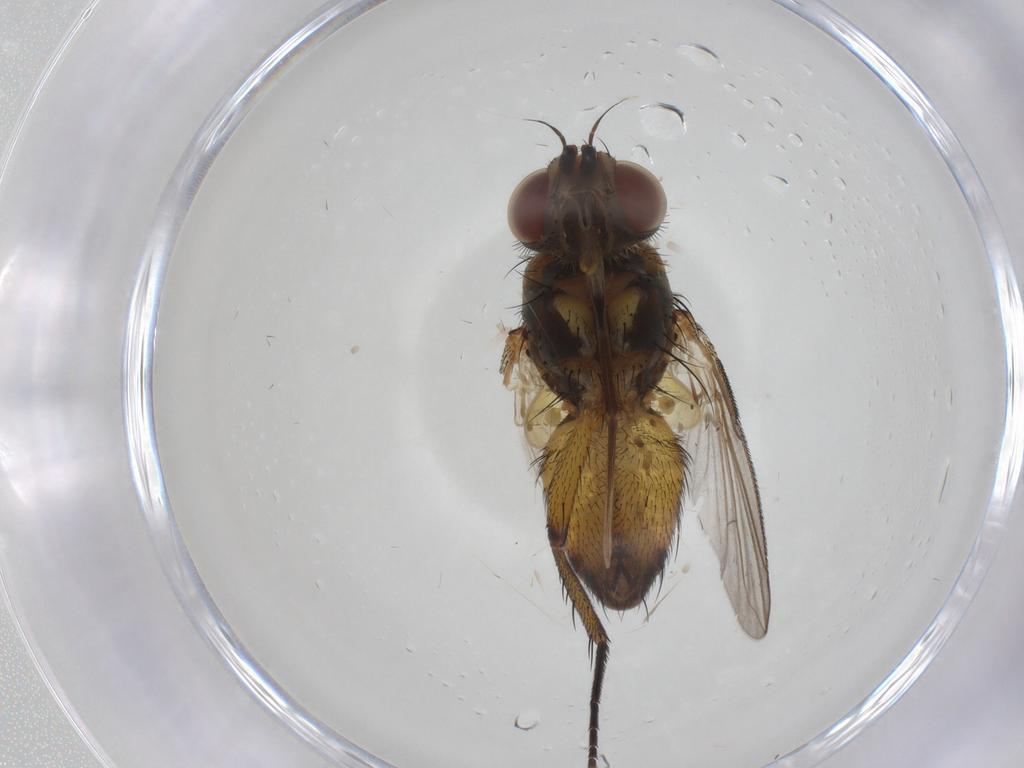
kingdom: Animalia
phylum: Arthropoda
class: Insecta
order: Diptera
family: Tachinidae
